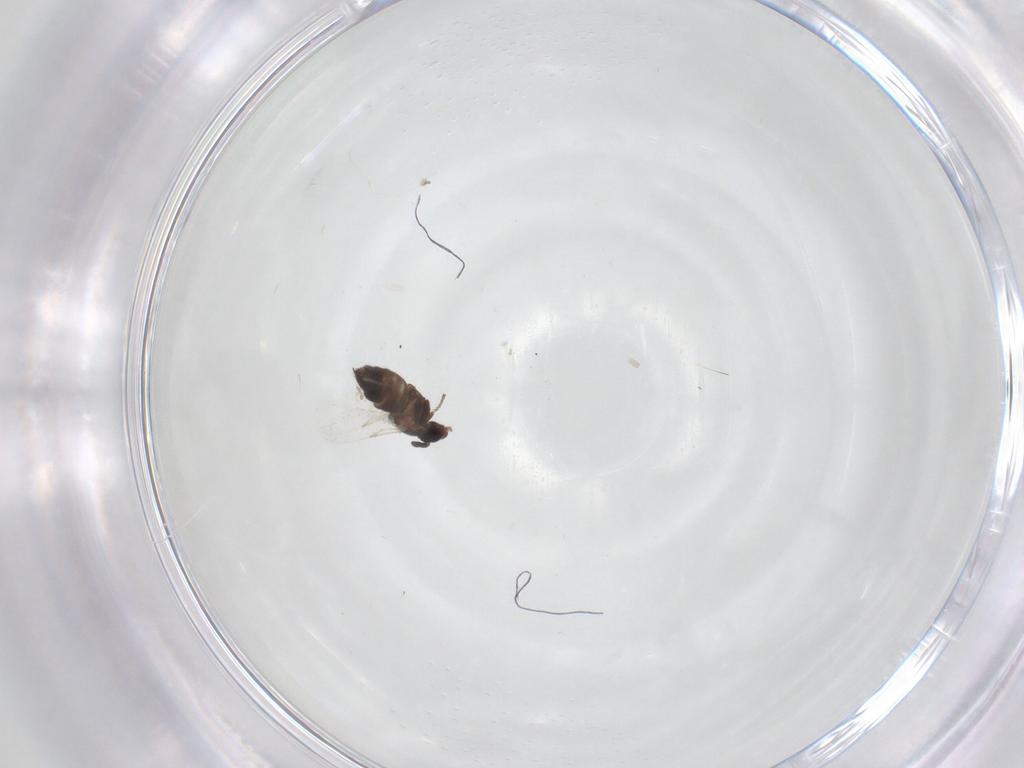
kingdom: Animalia
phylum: Arthropoda
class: Insecta
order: Diptera
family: Scatopsidae
